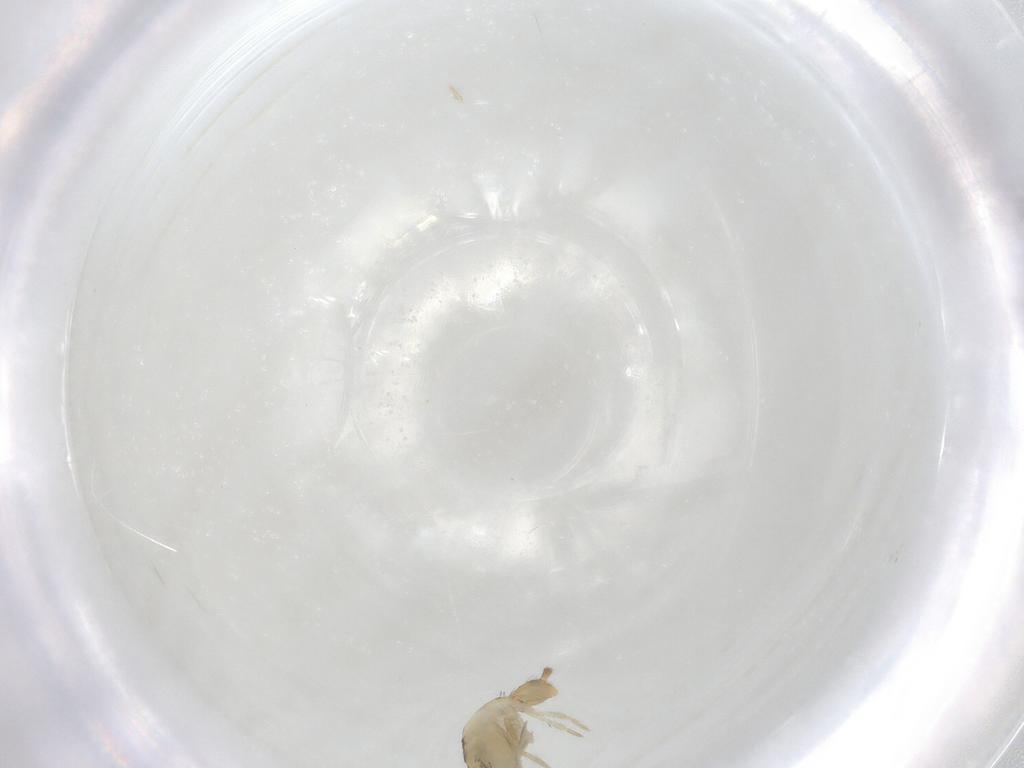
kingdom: Animalia
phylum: Arthropoda
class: Collembola
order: Entomobryomorpha
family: Entomobryidae
